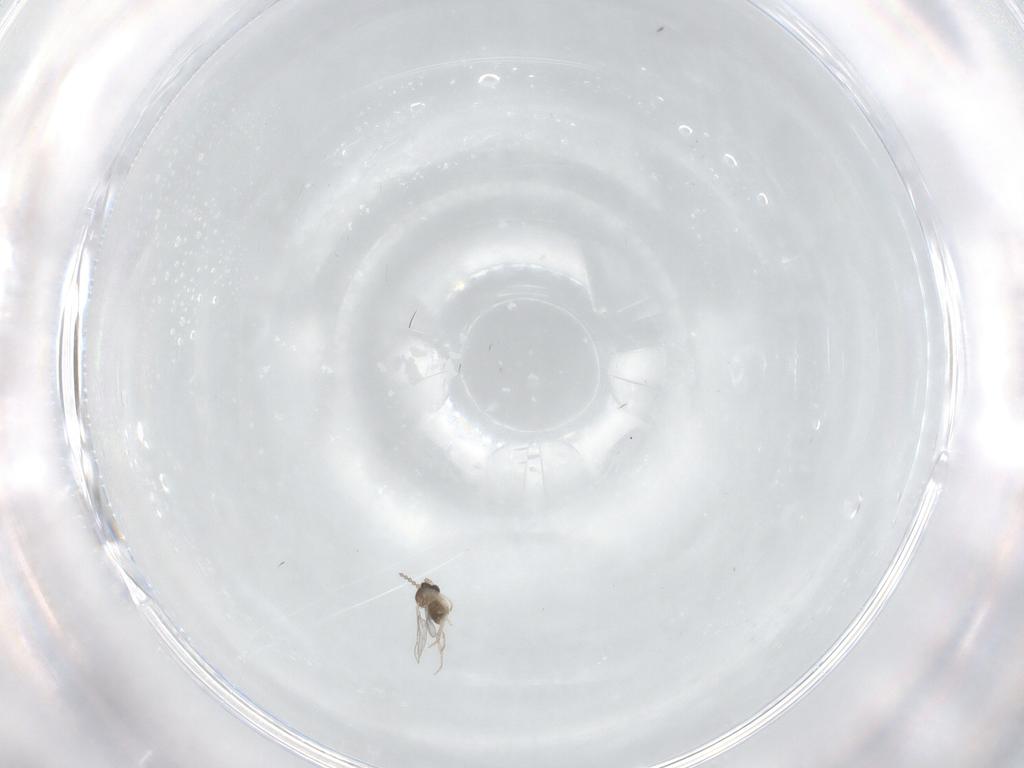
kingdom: Animalia
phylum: Arthropoda
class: Insecta
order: Diptera
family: Cecidomyiidae
